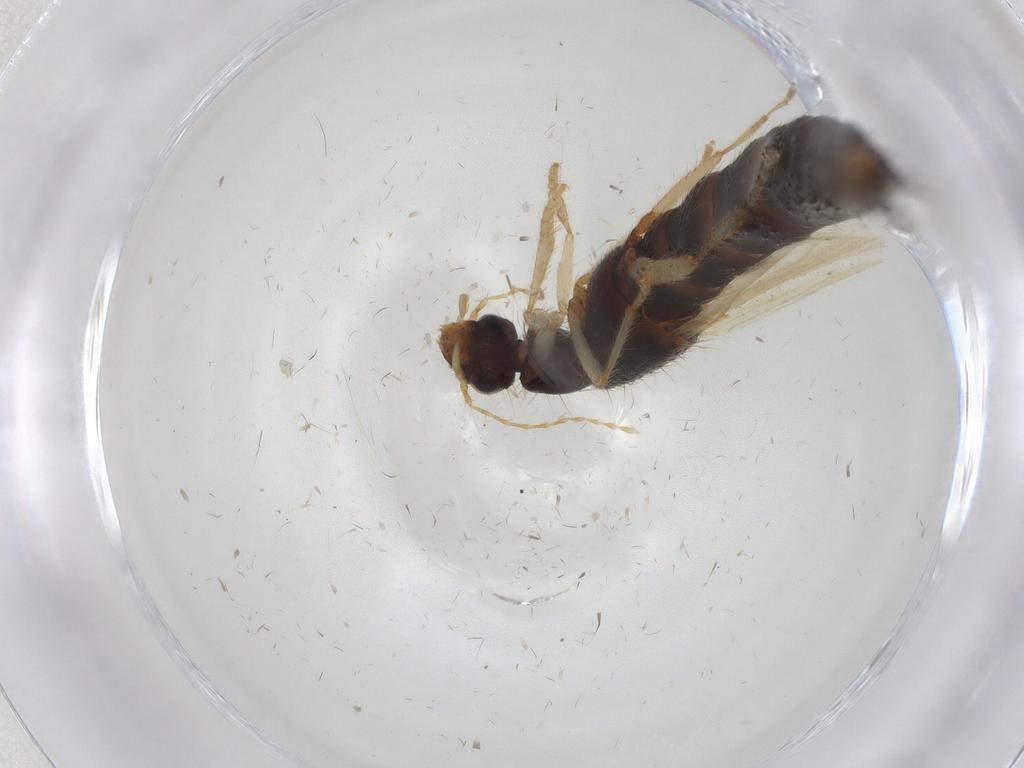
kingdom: Animalia
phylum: Arthropoda
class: Insecta
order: Coleoptera
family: Staphylinidae
